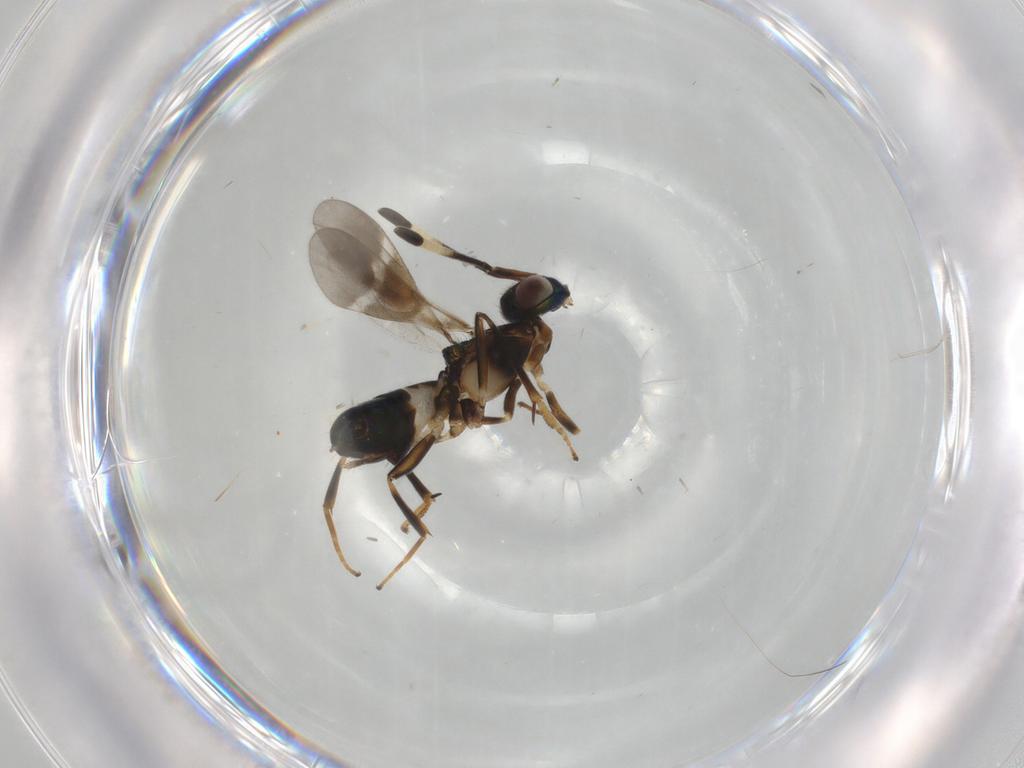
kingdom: Animalia
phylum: Arthropoda
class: Insecta
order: Hymenoptera
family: Eupelmidae
